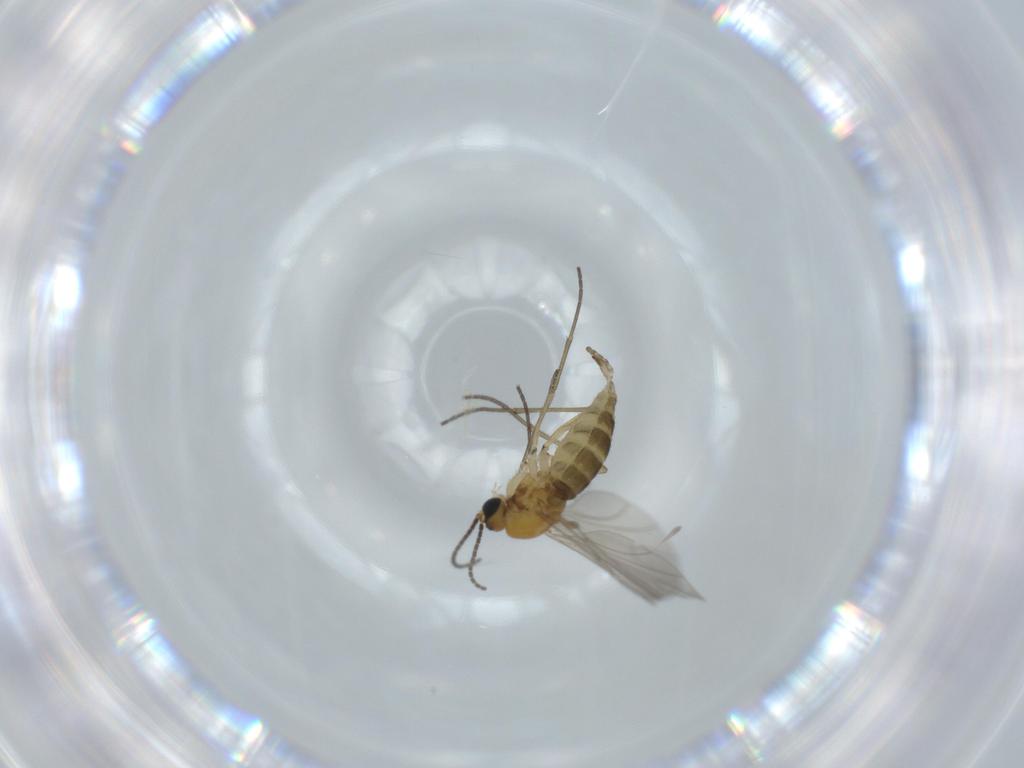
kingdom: Animalia
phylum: Arthropoda
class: Insecta
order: Diptera
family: Sciaridae
